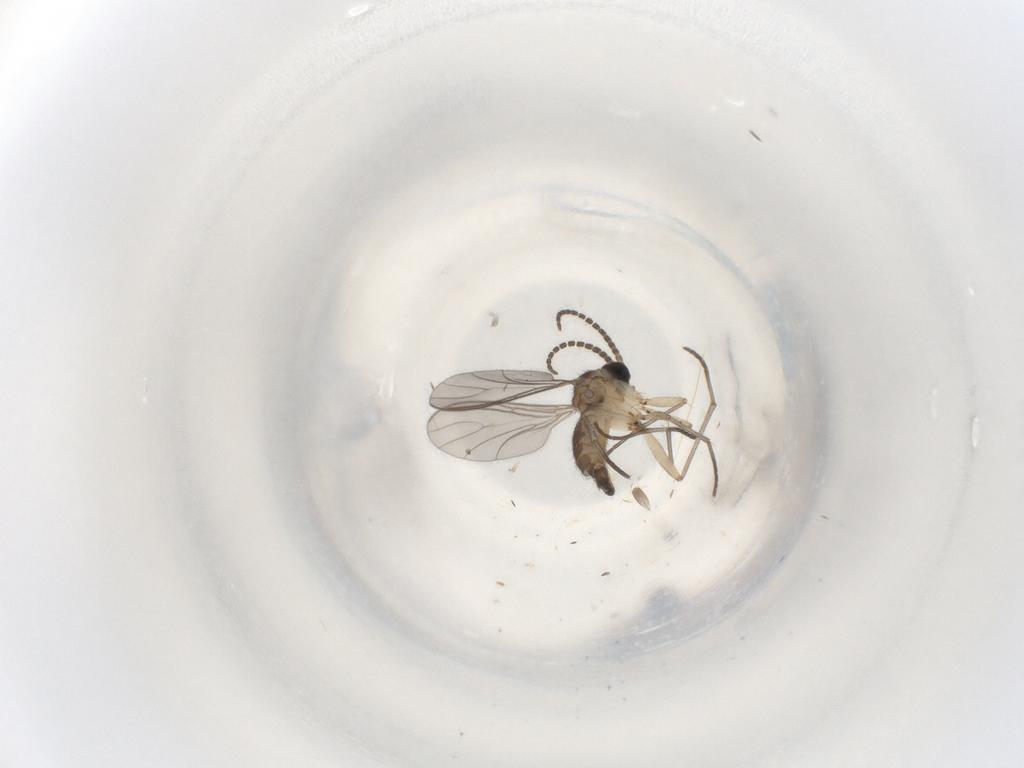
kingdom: Animalia
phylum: Arthropoda
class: Insecta
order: Diptera
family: Sciaridae
